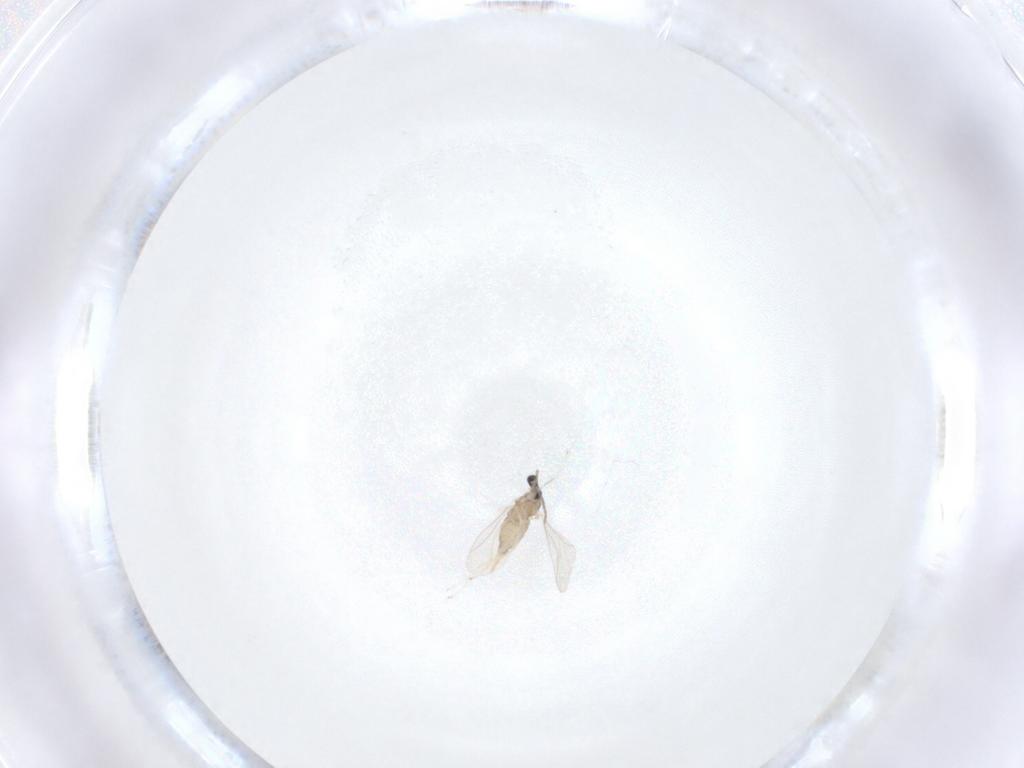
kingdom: Animalia
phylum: Arthropoda
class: Insecta
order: Diptera
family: Cecidomyiidae
